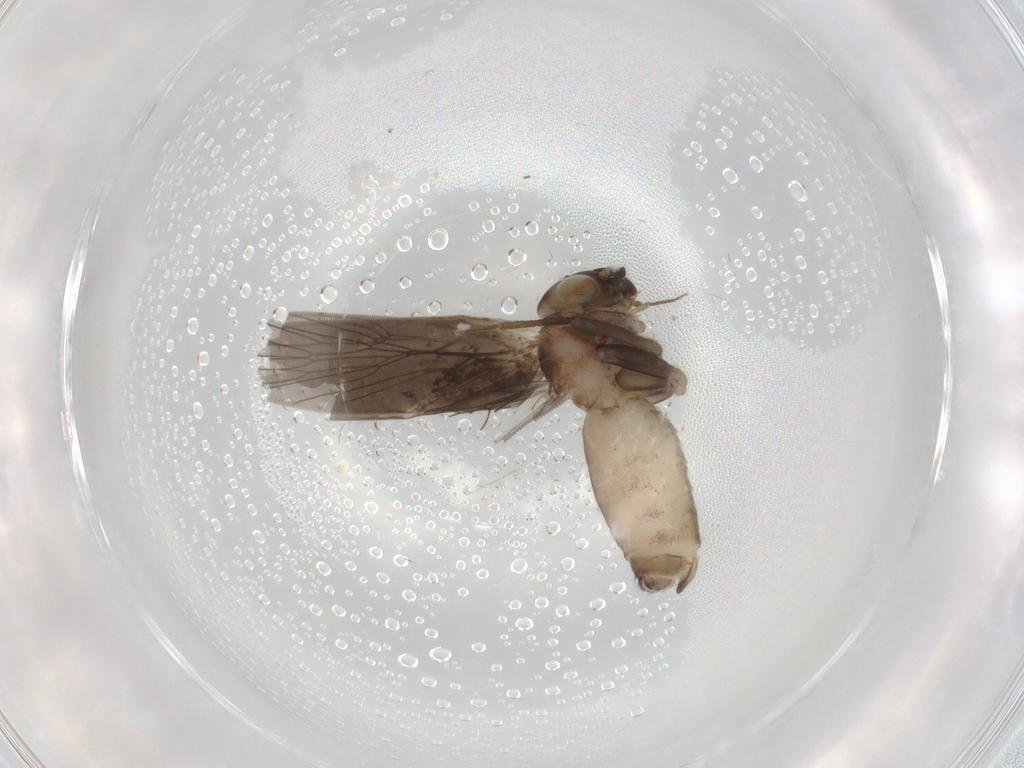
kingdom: Animalia
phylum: Arthropoda
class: Insecta
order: Psocodea
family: Lepidopsocidae
